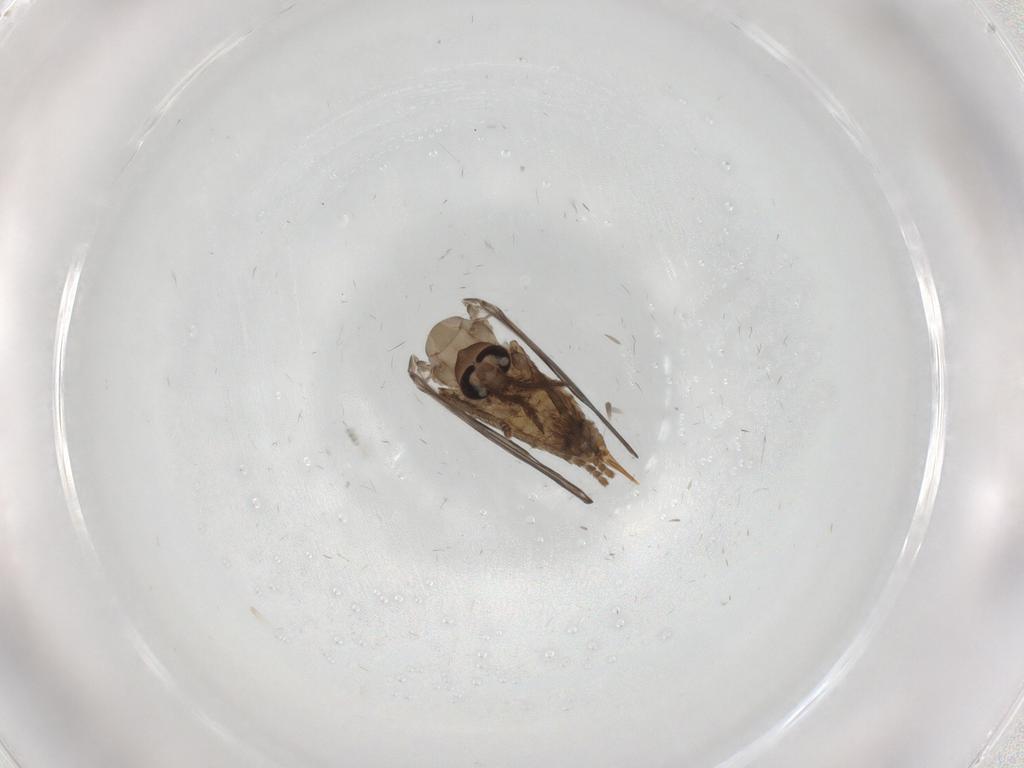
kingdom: Animalia
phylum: Arthropoda
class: Insecta
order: Diptera
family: Psychodidae
